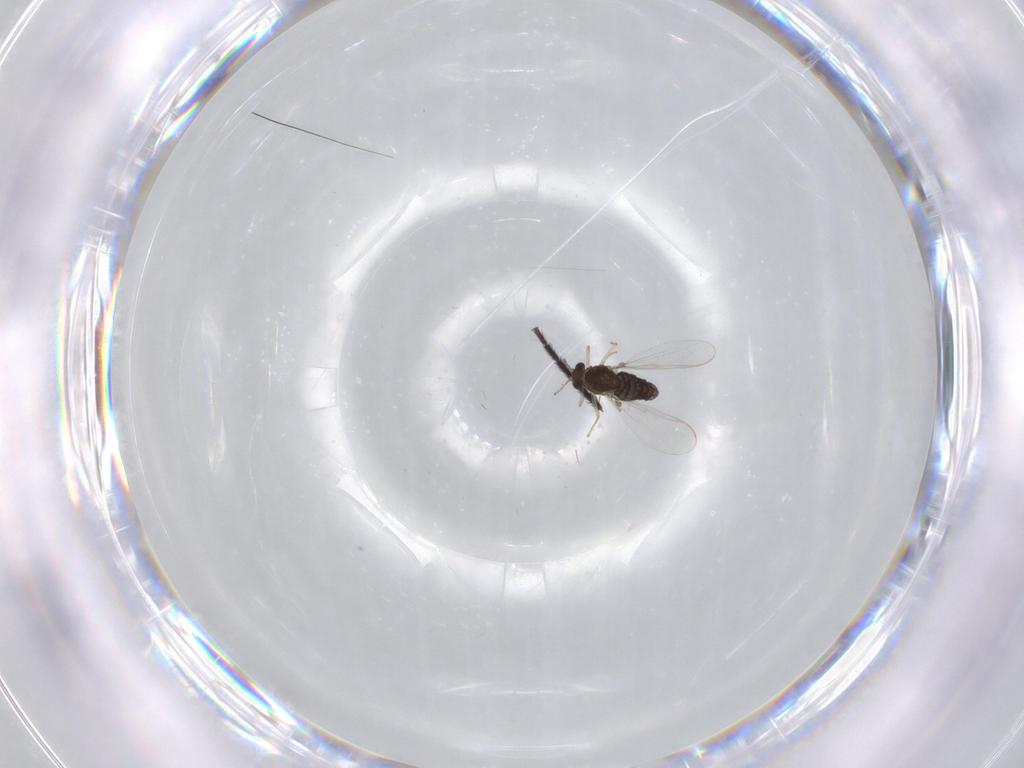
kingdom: Animalia
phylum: Arthropoda
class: Insecta
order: Diptera
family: Chironomidae
